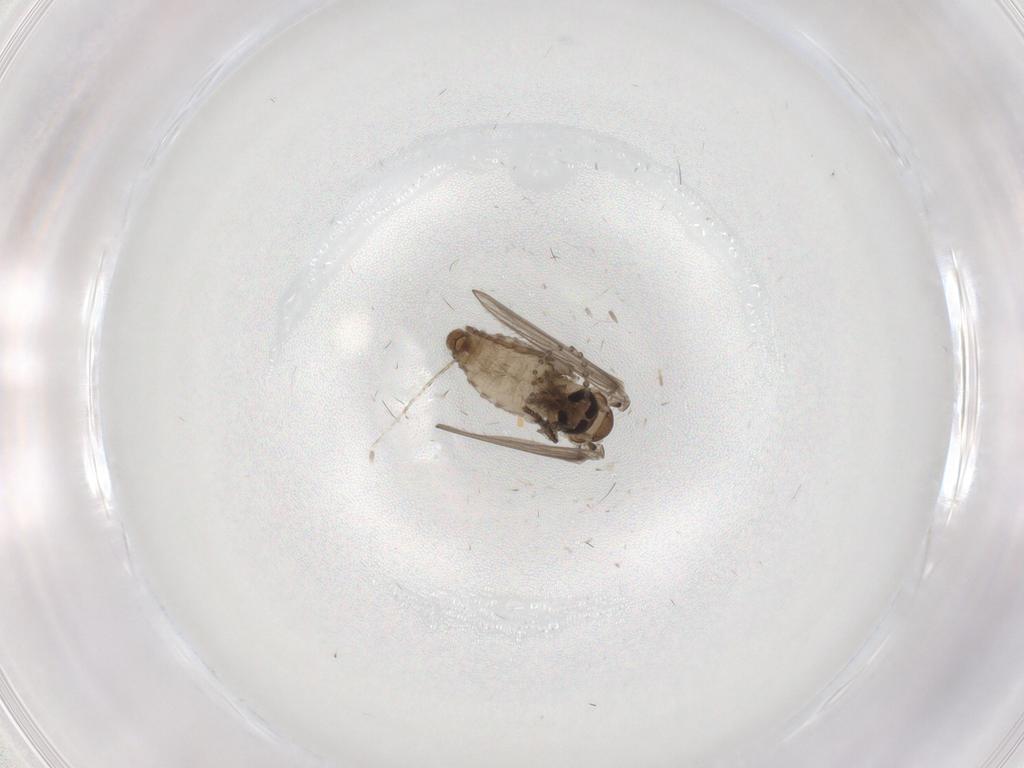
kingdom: Animalia
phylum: Arthropoda
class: Insecta
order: Diptera
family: Psychodidae
